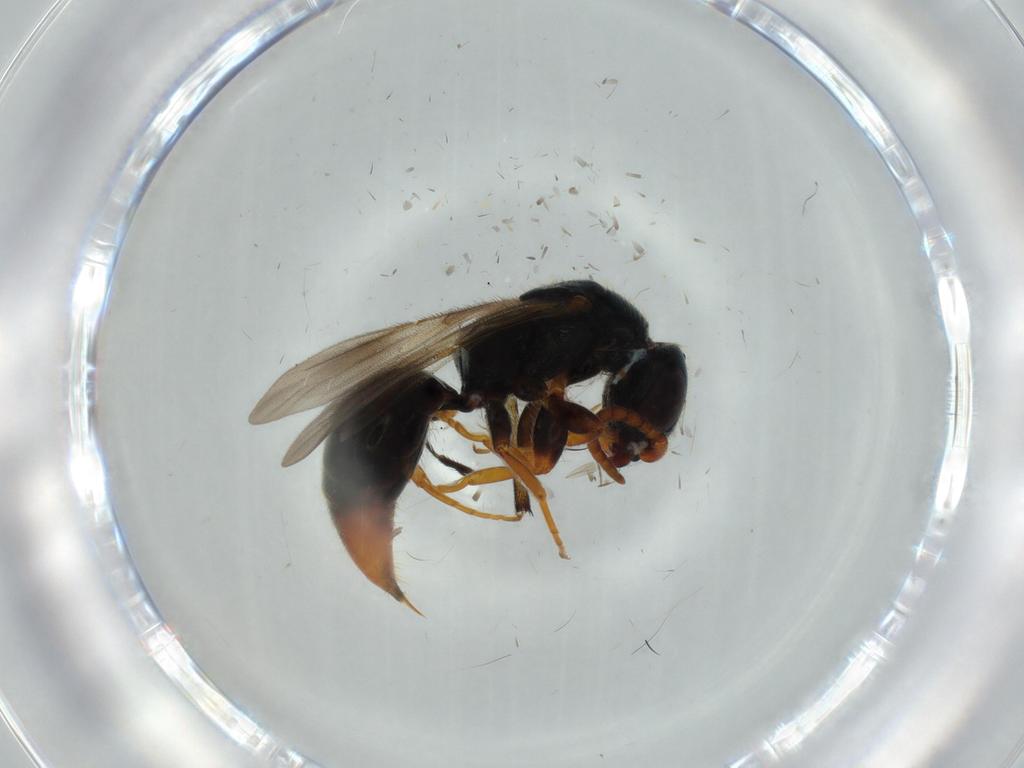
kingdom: Animalia
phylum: Arthropoda
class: Insecta
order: Hymenoptera
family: Bethylidae
